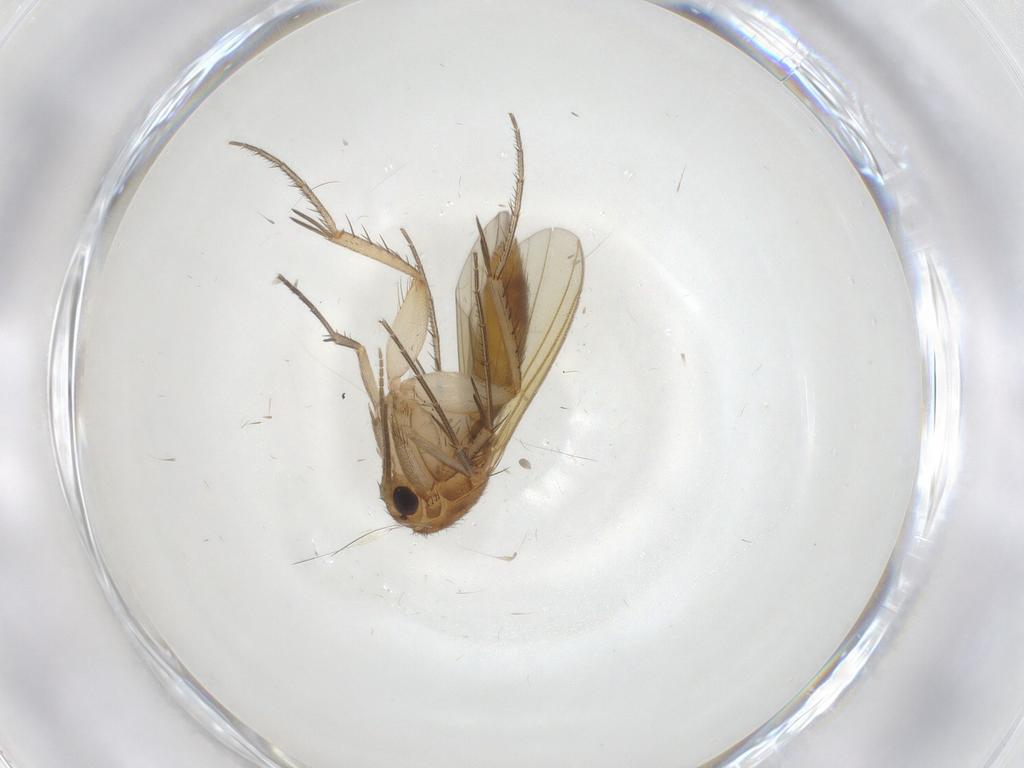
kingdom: Animalia
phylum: Arthropoda
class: Insecta
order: Diptera
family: Mycetophilidae
